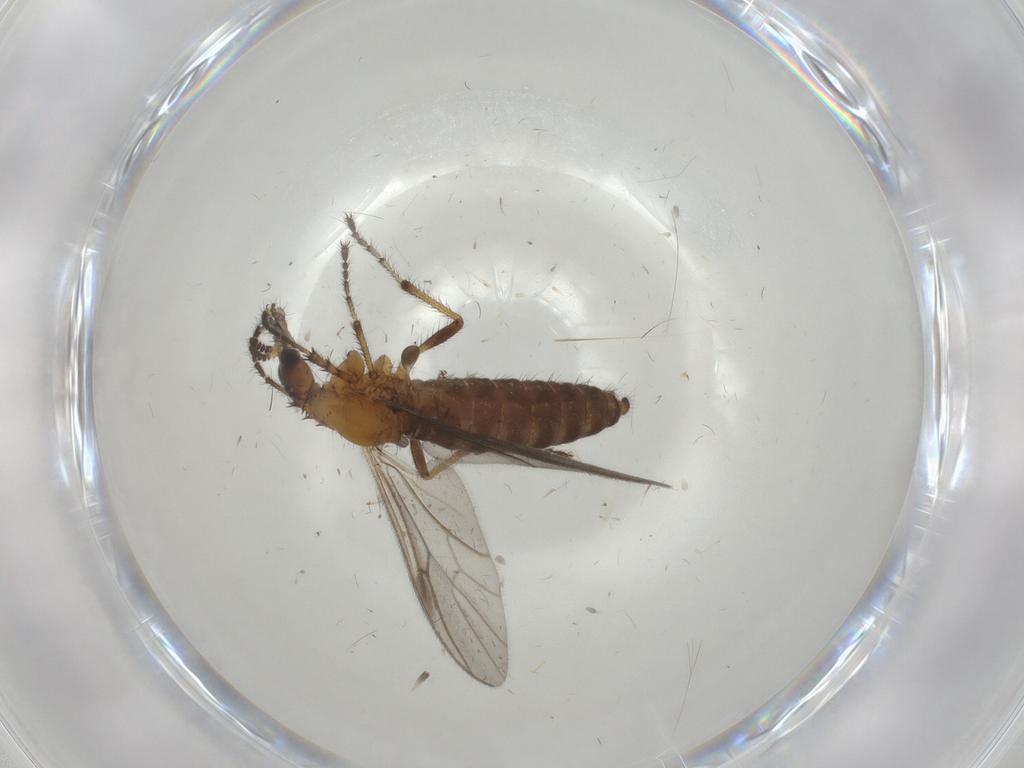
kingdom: Animalia
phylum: Arthropoda
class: Insecta
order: Diptera
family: Bibionidae
